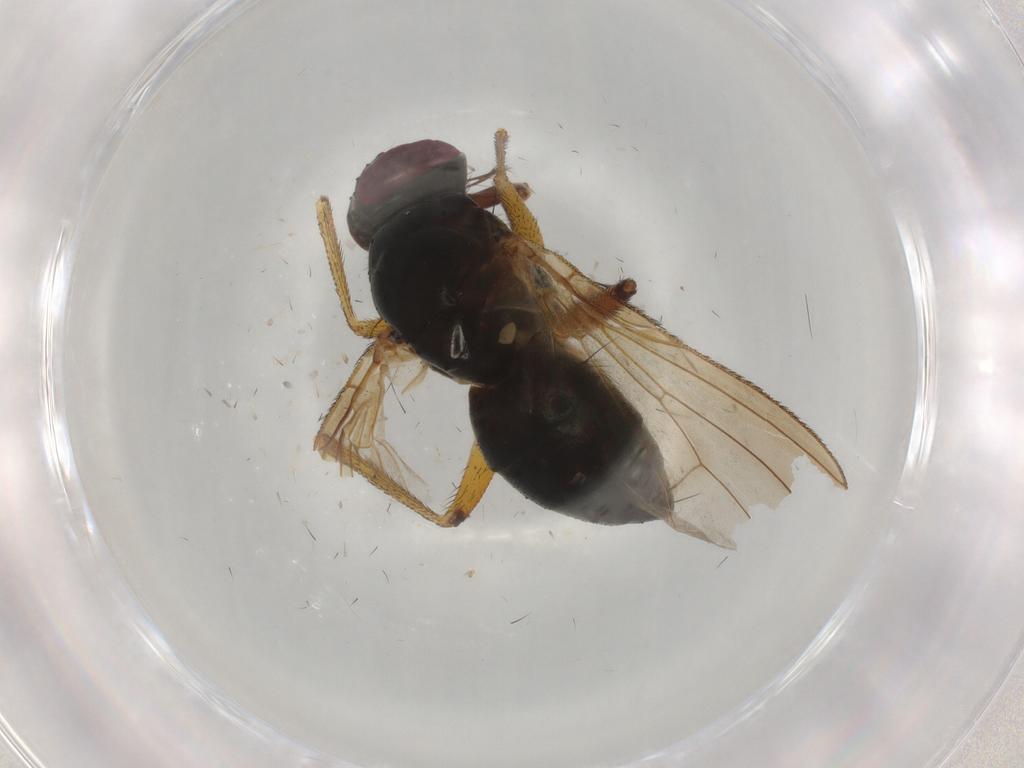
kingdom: Animalia
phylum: Arthropoda
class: Insecta
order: Diptera
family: Muscidae
